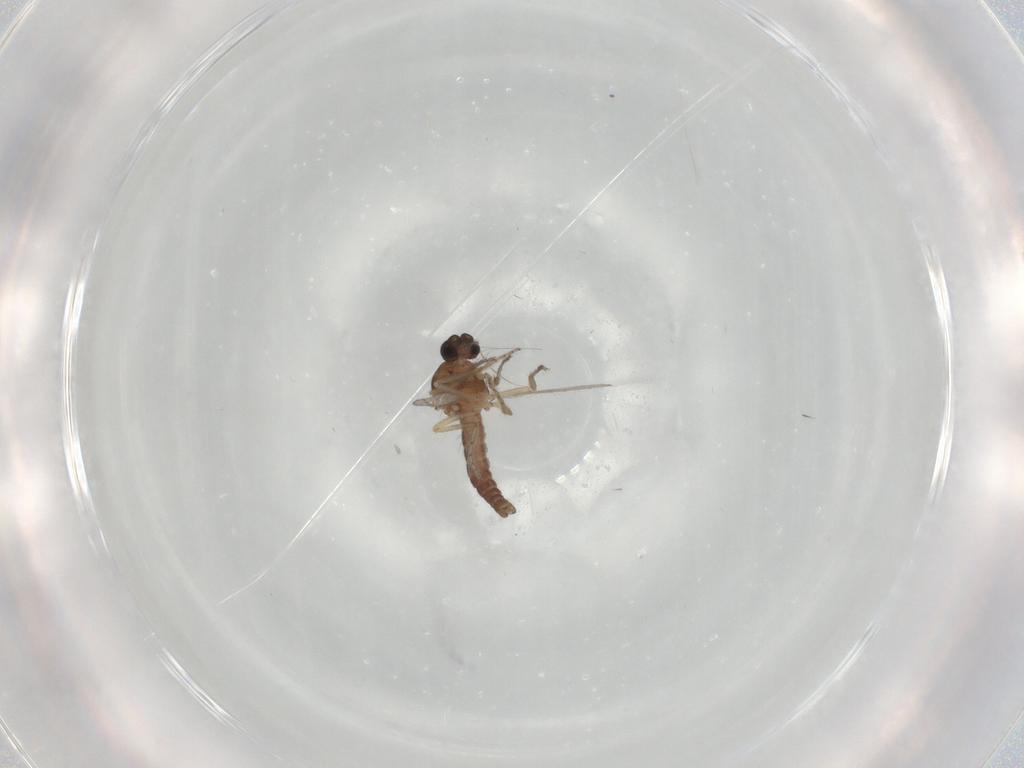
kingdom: Animalia
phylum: Arthropoda
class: Insecta
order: Diptera
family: Ceratopogonidae
